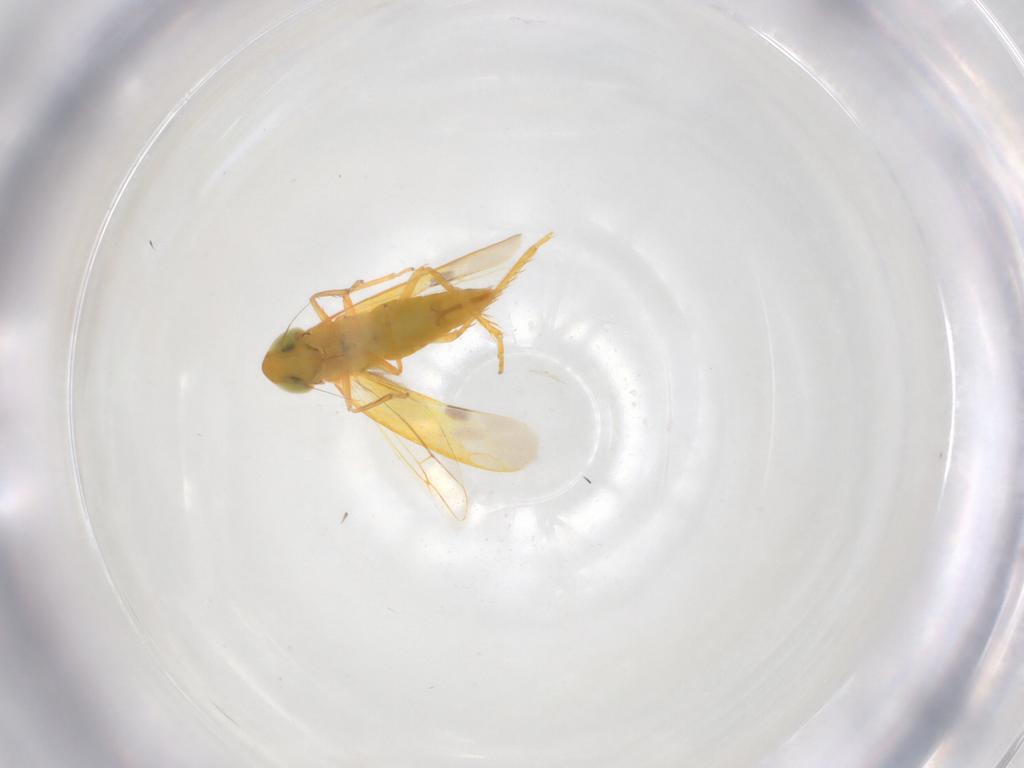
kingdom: Animalia
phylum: Arthropoda
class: Insecta
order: Hemiptera
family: Cicadellidae
